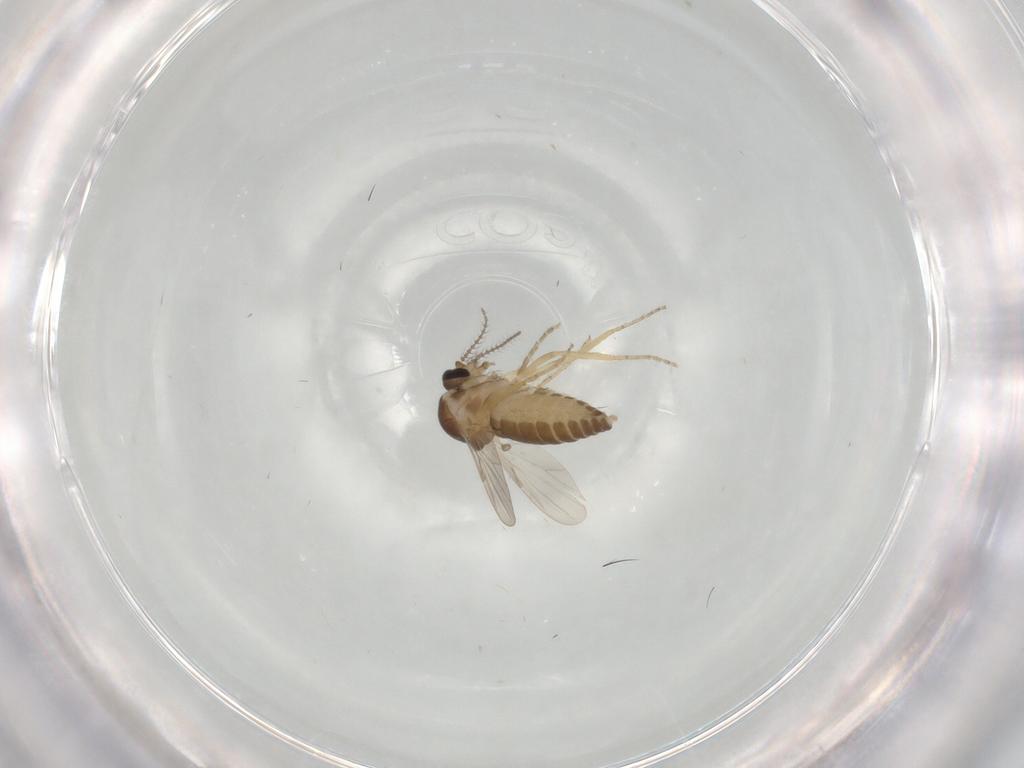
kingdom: Animalia
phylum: Arthropoda
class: Insecta
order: Diptera
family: Ceratopogonidae
